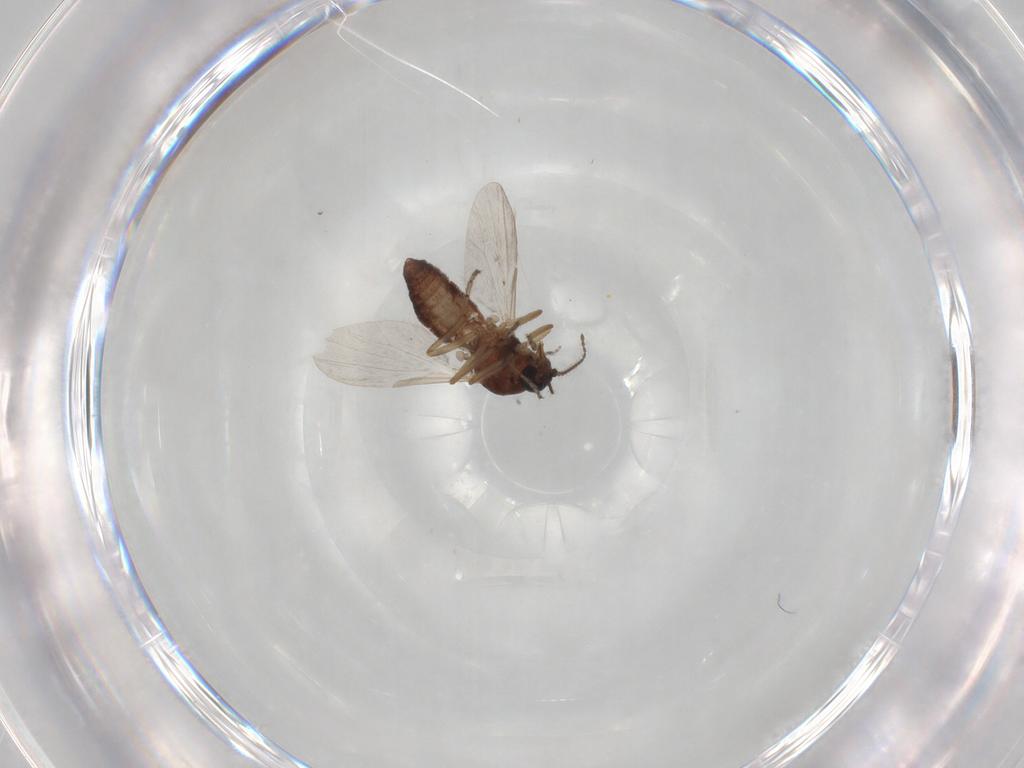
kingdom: Animalia
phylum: Arthropoda
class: Insecta
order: Diptera
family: Ceratopogonidae
